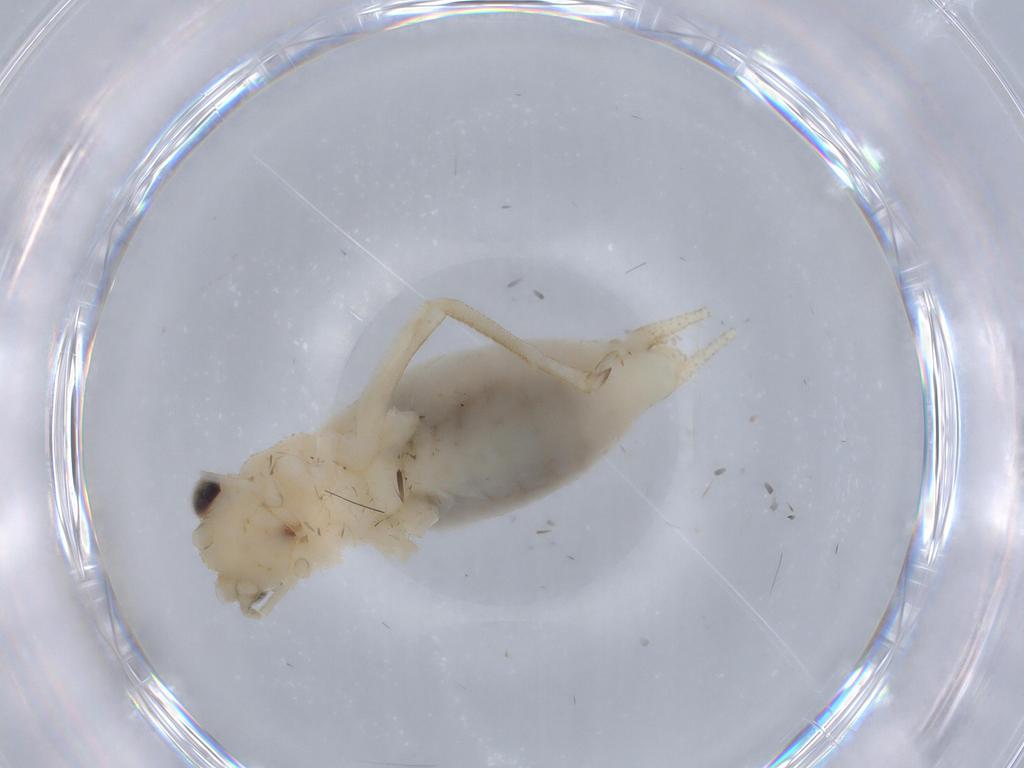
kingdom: Animalia
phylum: Arthropoda
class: Insecta
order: Orthoptera
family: Trigonidiidae
